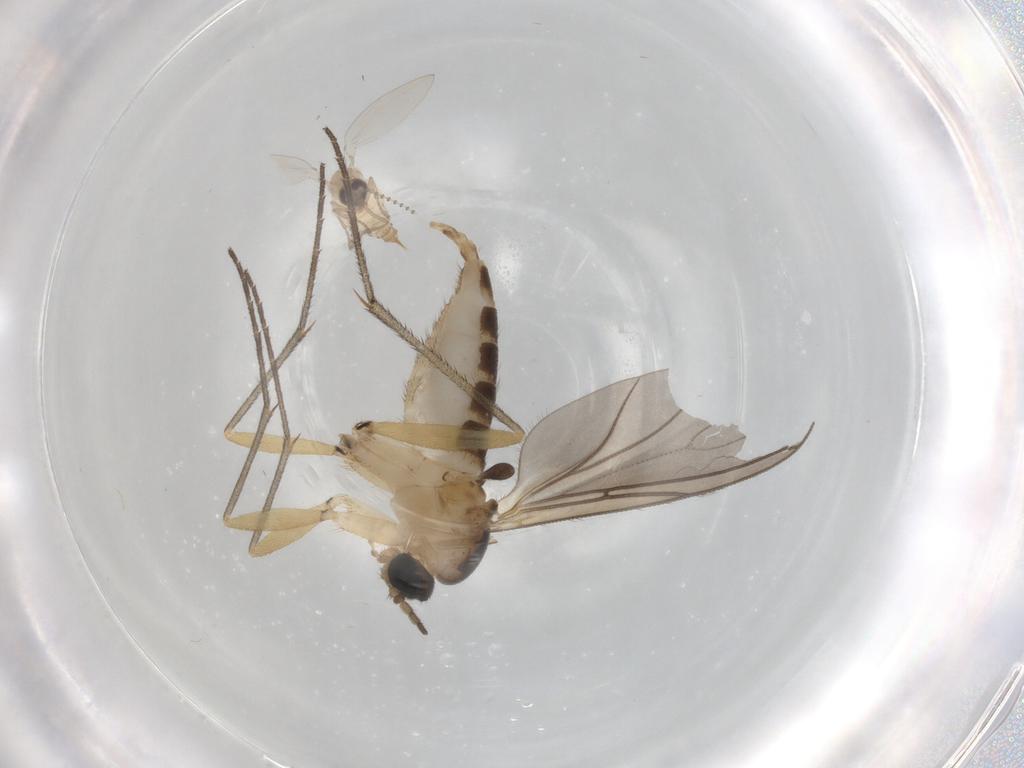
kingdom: Animalia
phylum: Arthropoda
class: Insecta
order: Diptera
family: Sciaridae
